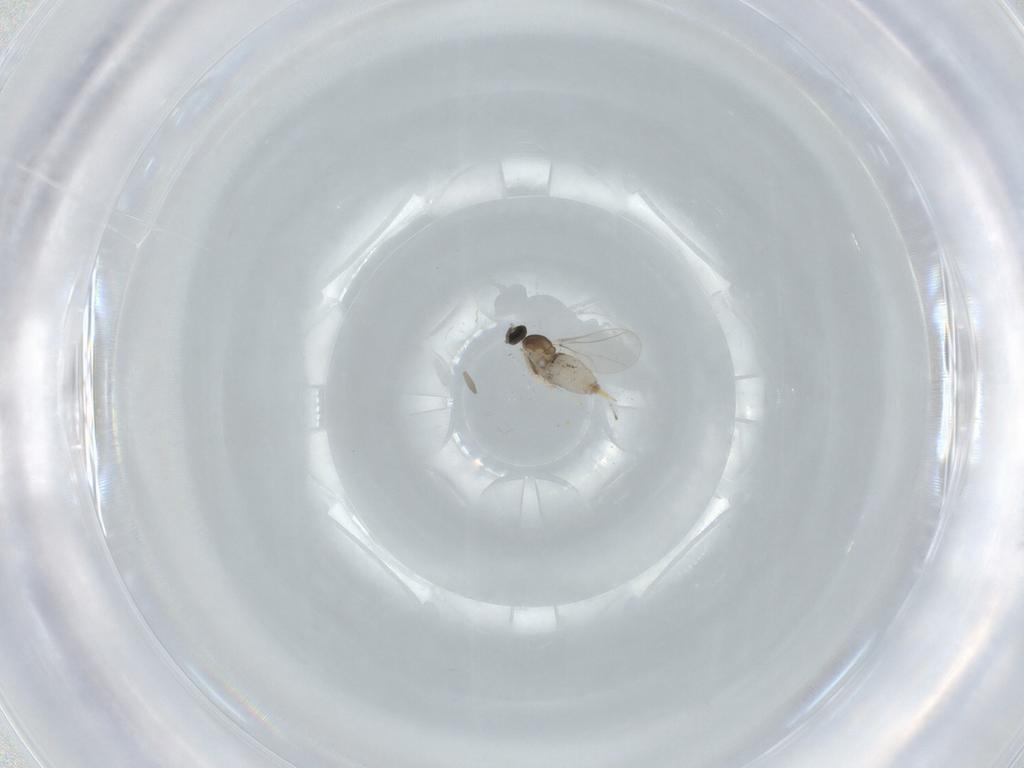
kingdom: Animalia
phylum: Arthropoda
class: Insecta
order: Diptera
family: Cecidomyiidae
